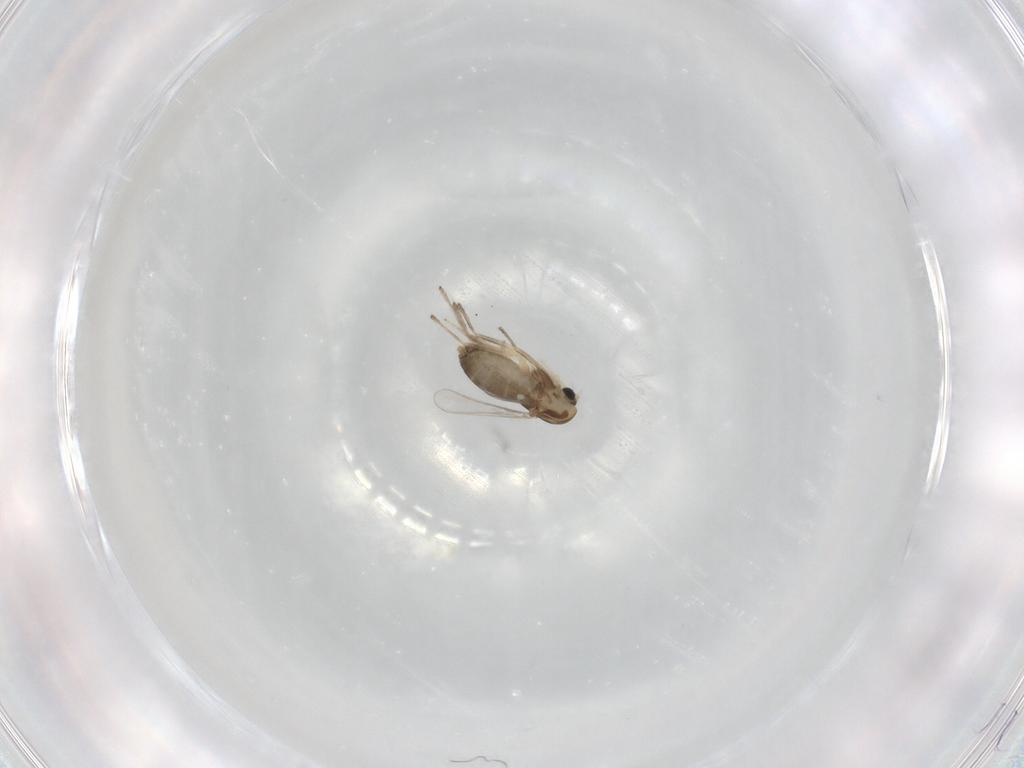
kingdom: Animalia
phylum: Arthropoda
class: Insecta
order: Diptera
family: Chironomidae
